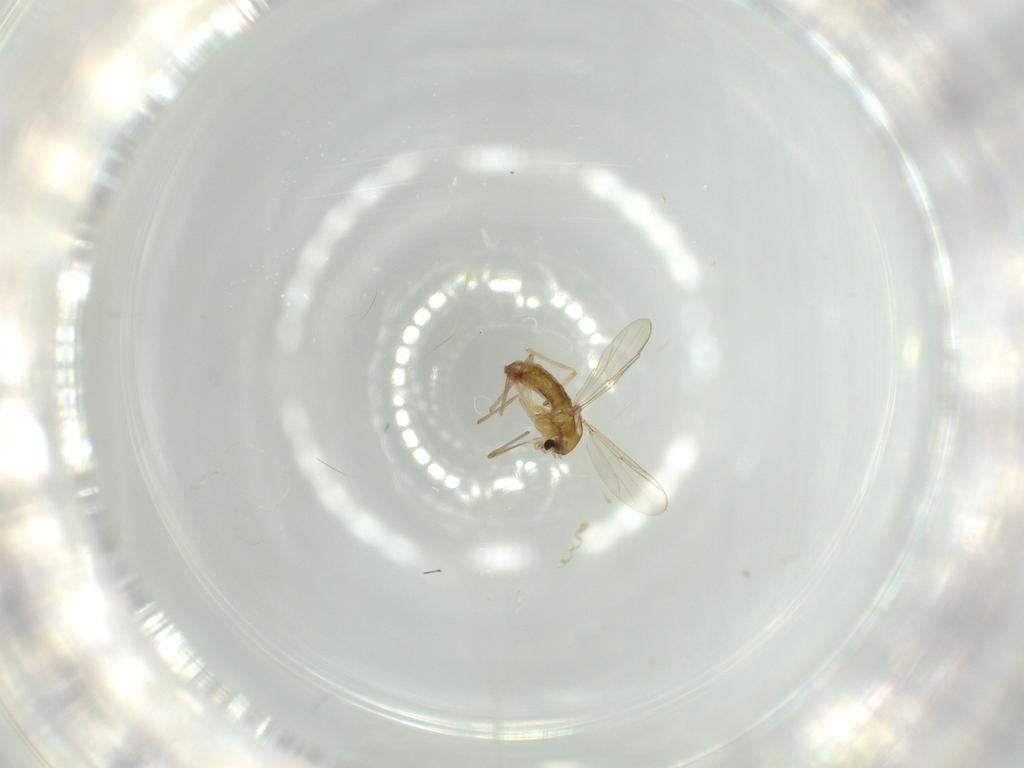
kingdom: Animalia
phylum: Arthropoda
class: Insecta
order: Diptera
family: Chironomidae
